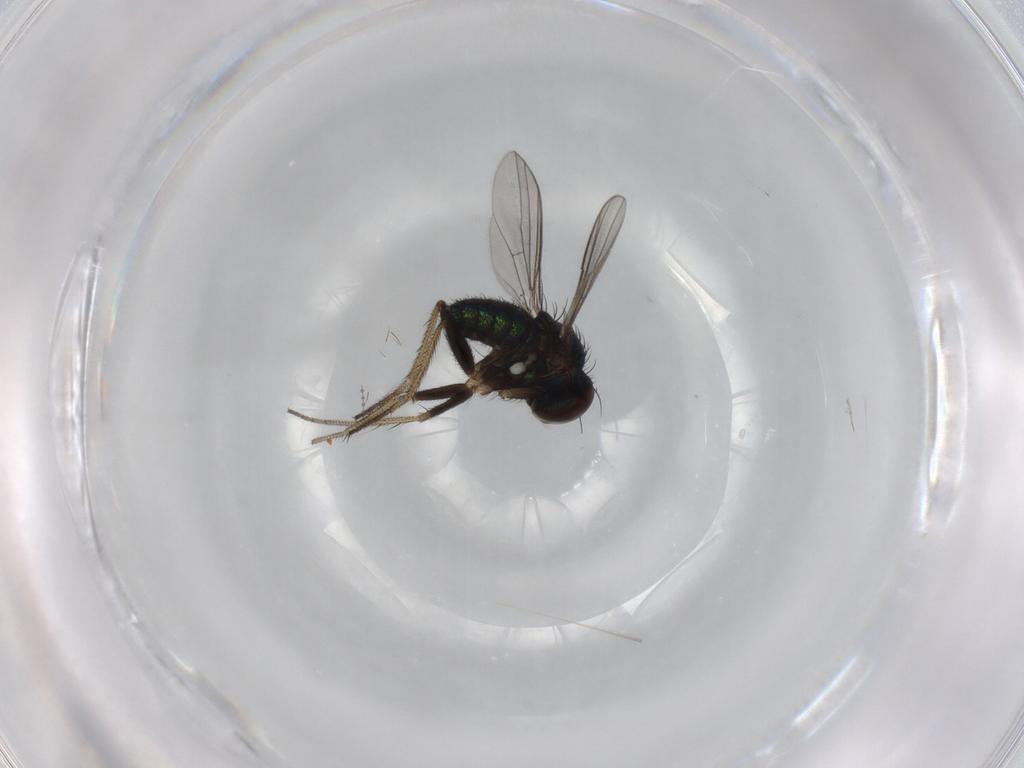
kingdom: Animalia
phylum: Arthropoda
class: Insecta
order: Diptera
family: Dolichopodidae
